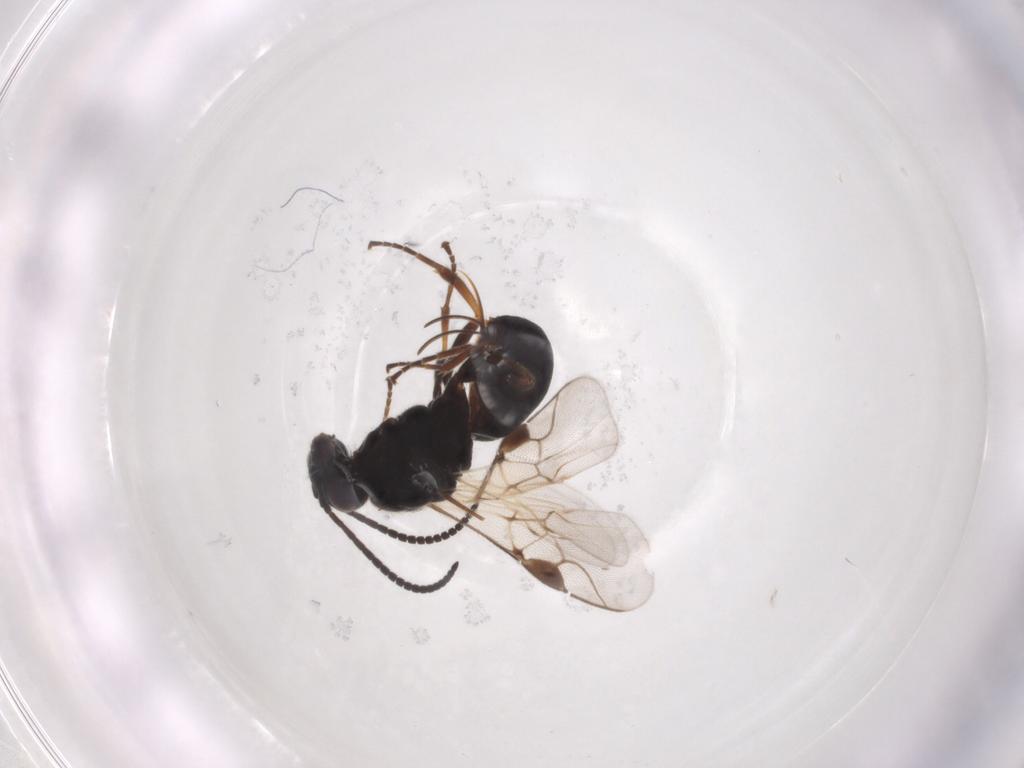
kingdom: Animalia
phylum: Arthropoda
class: Insecta
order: Hymenoptera
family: Braconidae
